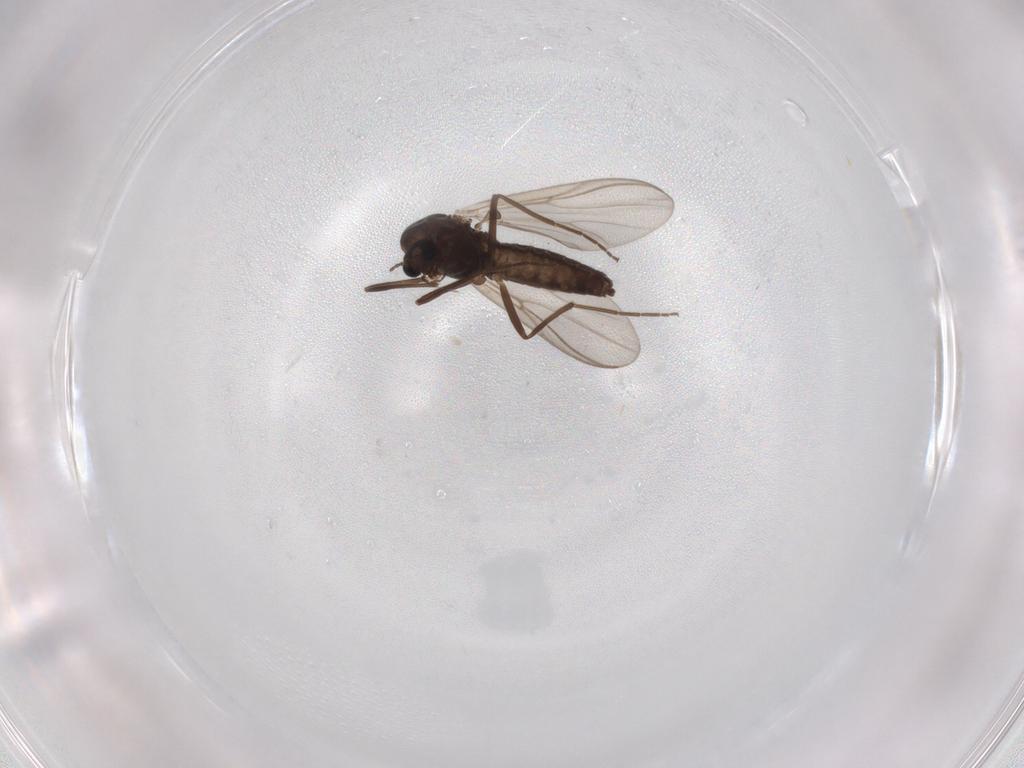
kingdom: Animalia
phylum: Arthropoda
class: Insecta
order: Diptera
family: Chironomidae
